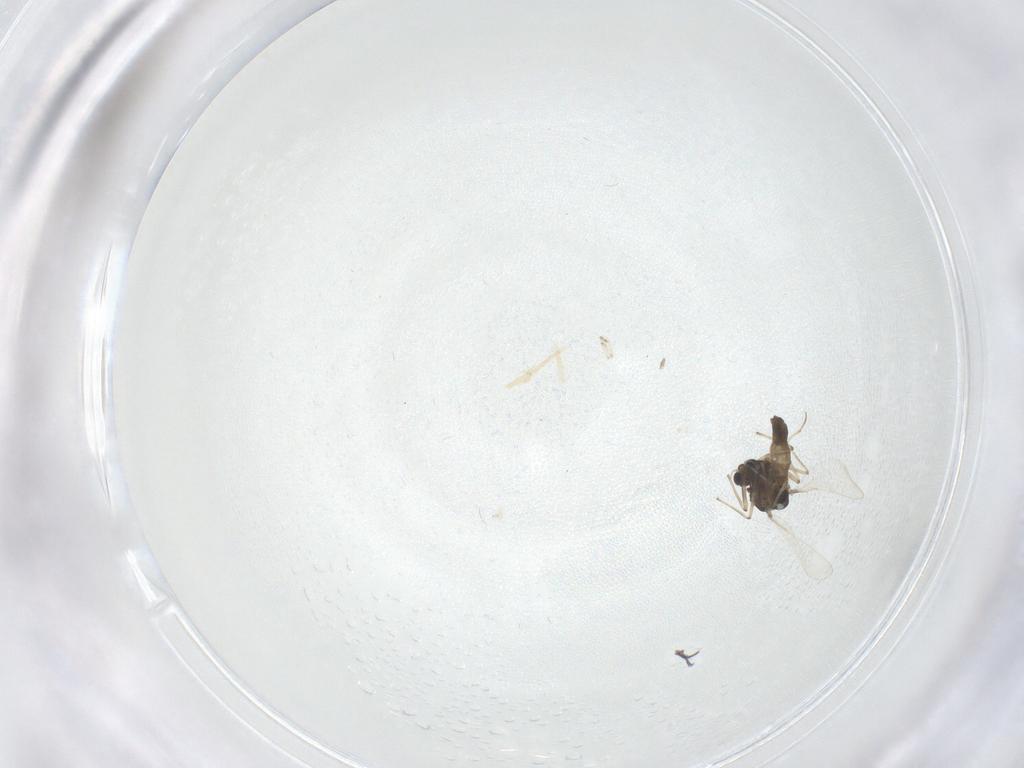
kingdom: Animalia
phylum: Arthropoda
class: Insecta
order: Diptera
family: Chironomidae
